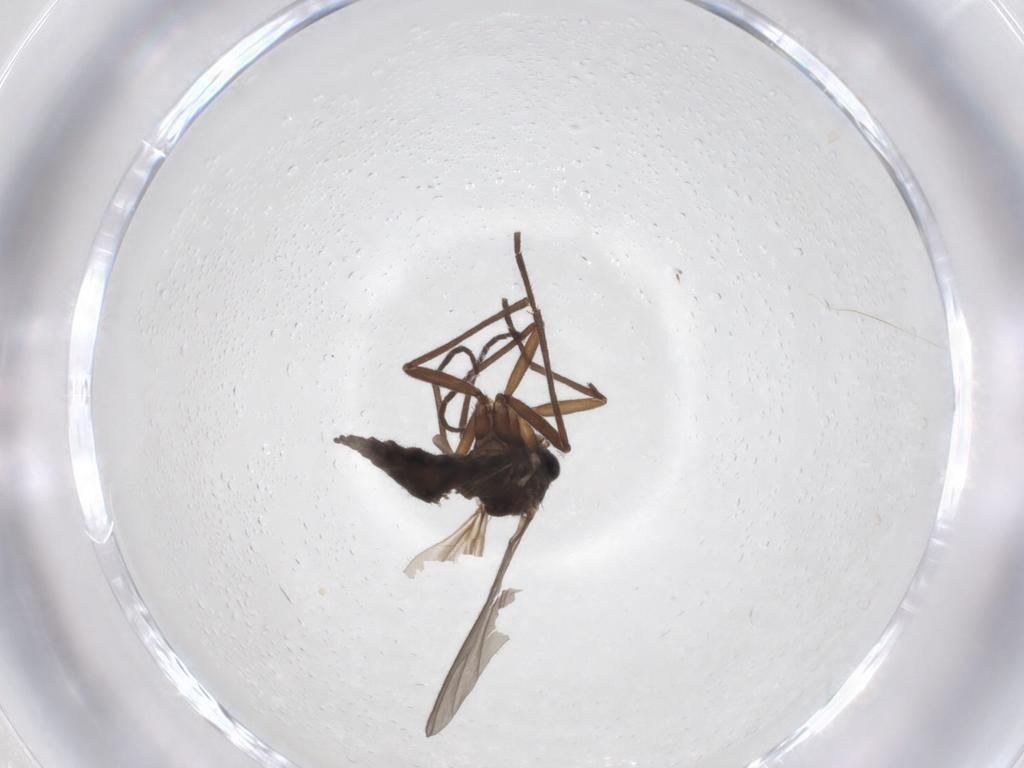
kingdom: Animalia
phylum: Arthropoda
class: Insecta
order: Diptera
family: Sciaridae
